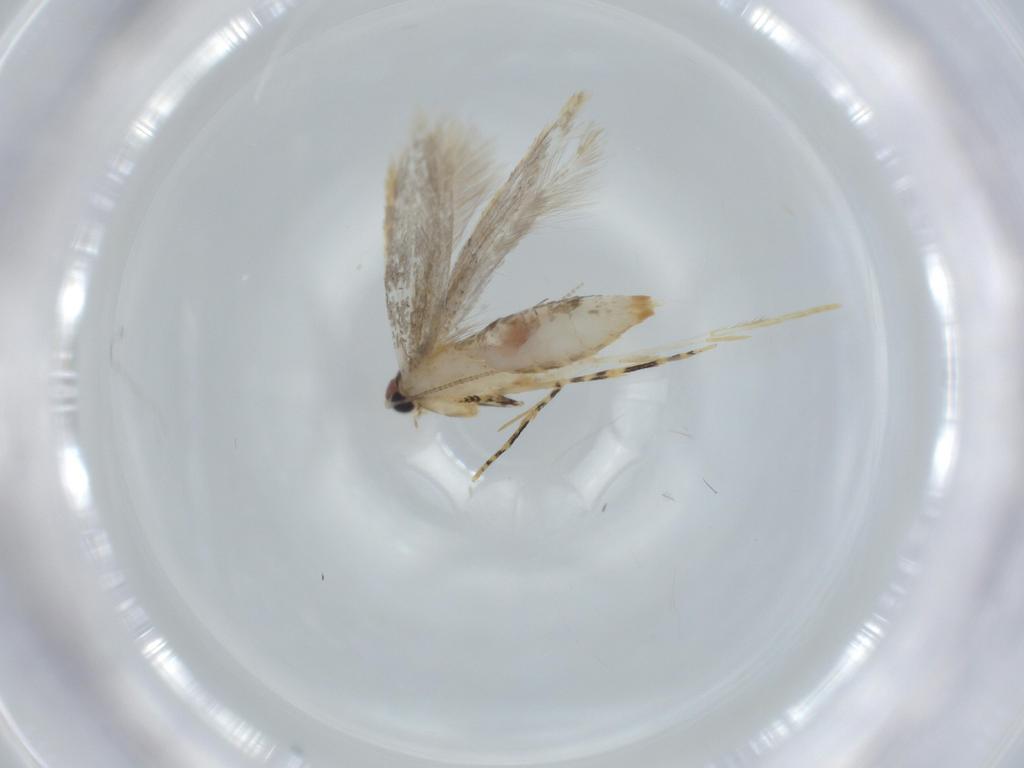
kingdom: Animalia
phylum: Arthropoda
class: Insecta
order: Lepidoptera
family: Tineidae
